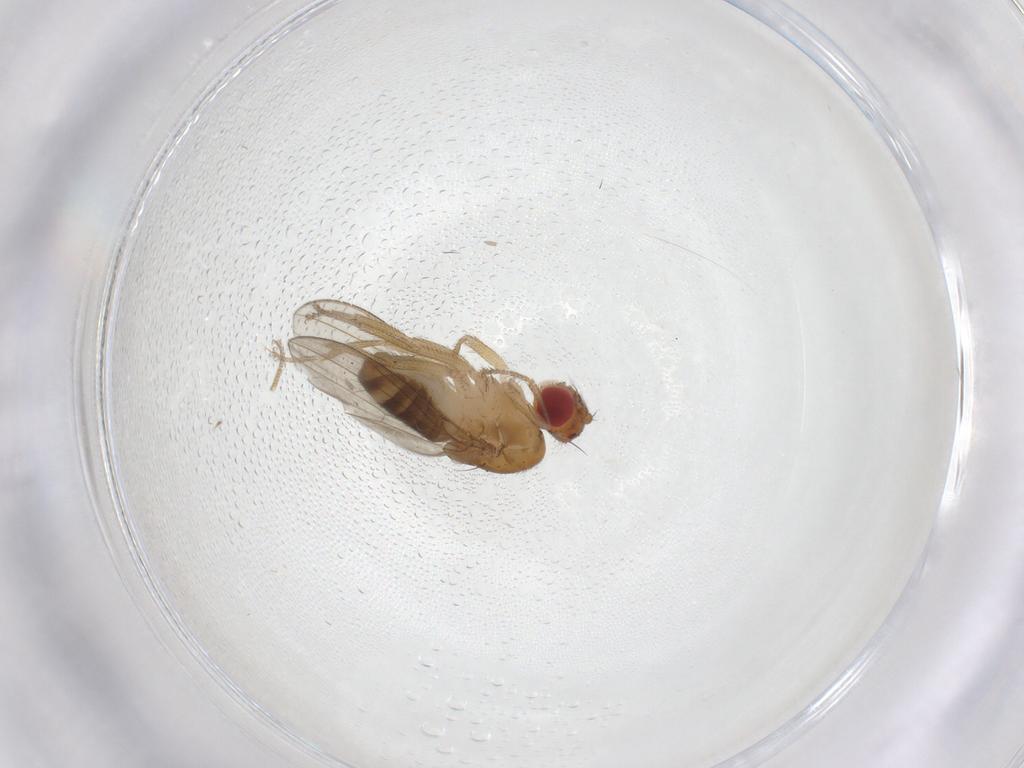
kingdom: Animalia
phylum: Arthropoda
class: Insecta
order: Diptera
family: Drosophilidae
